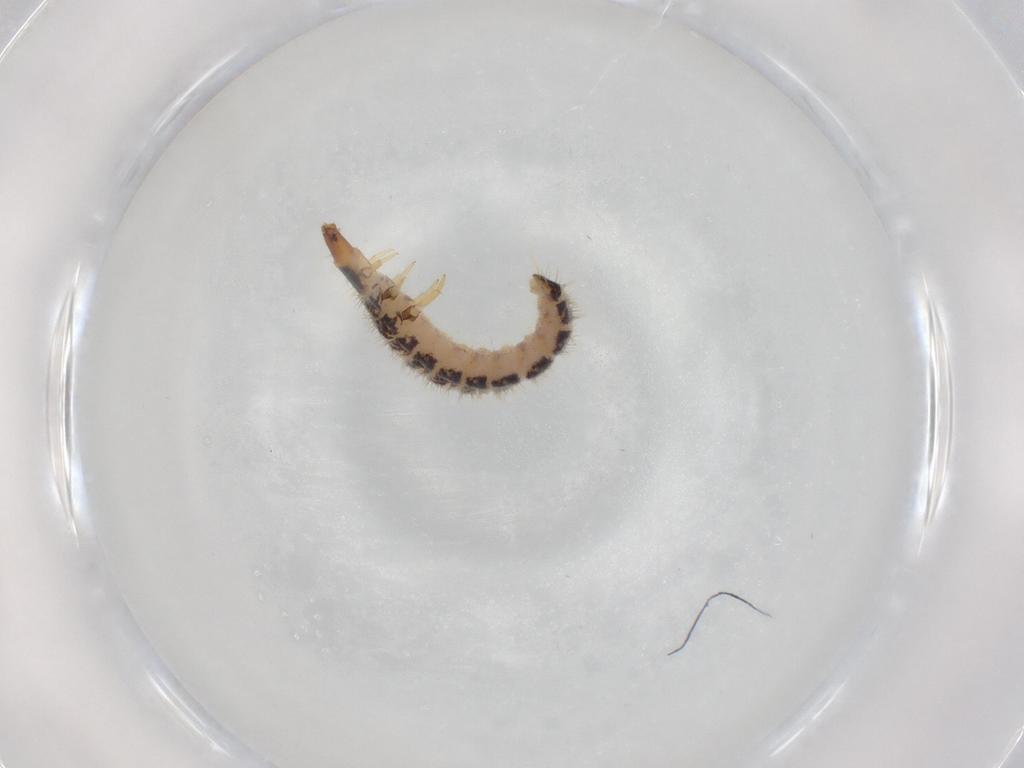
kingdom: Animalia
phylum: Arthropoda
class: Insecta
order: Coleoptera
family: Cleridae
